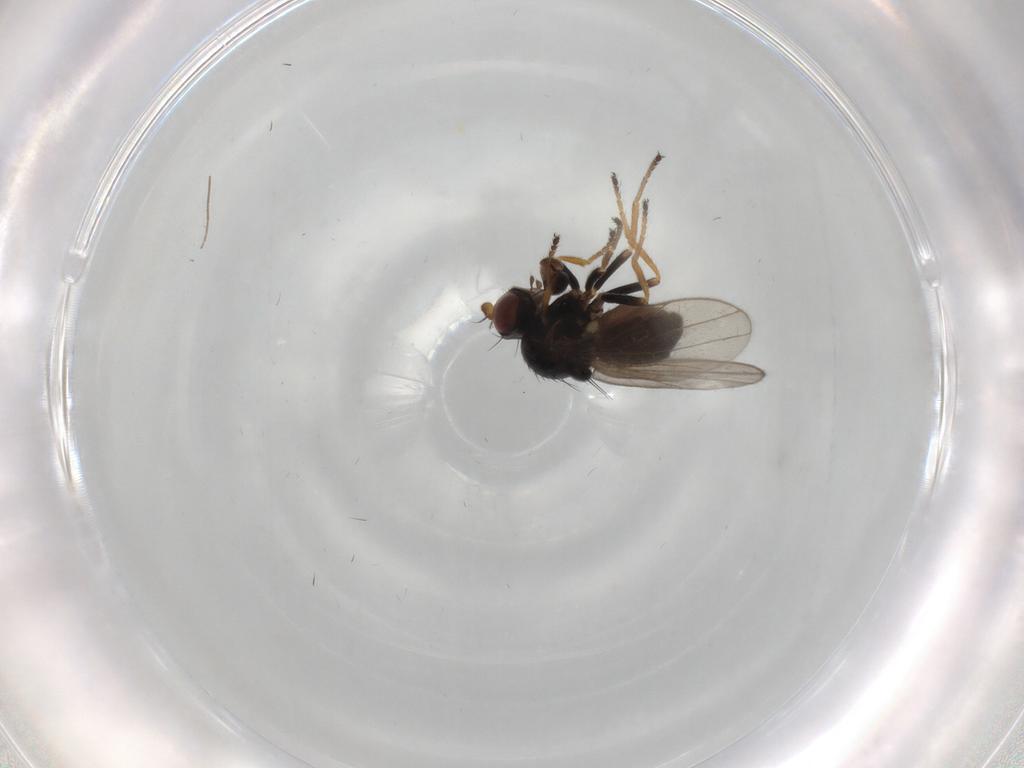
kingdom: Animalia
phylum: Arthropoda
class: Insecta
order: Diptera
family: Ephydridae
